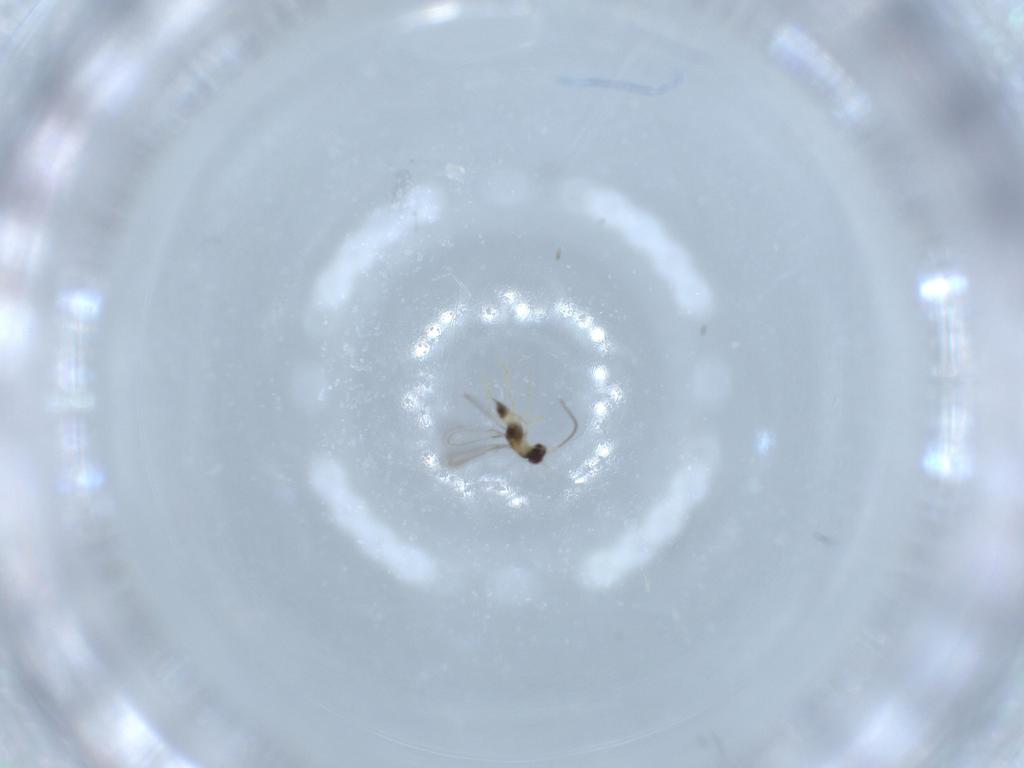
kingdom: Animalia
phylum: Arthropoda
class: Insecta
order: Hymenoptera
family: Mymaridae
